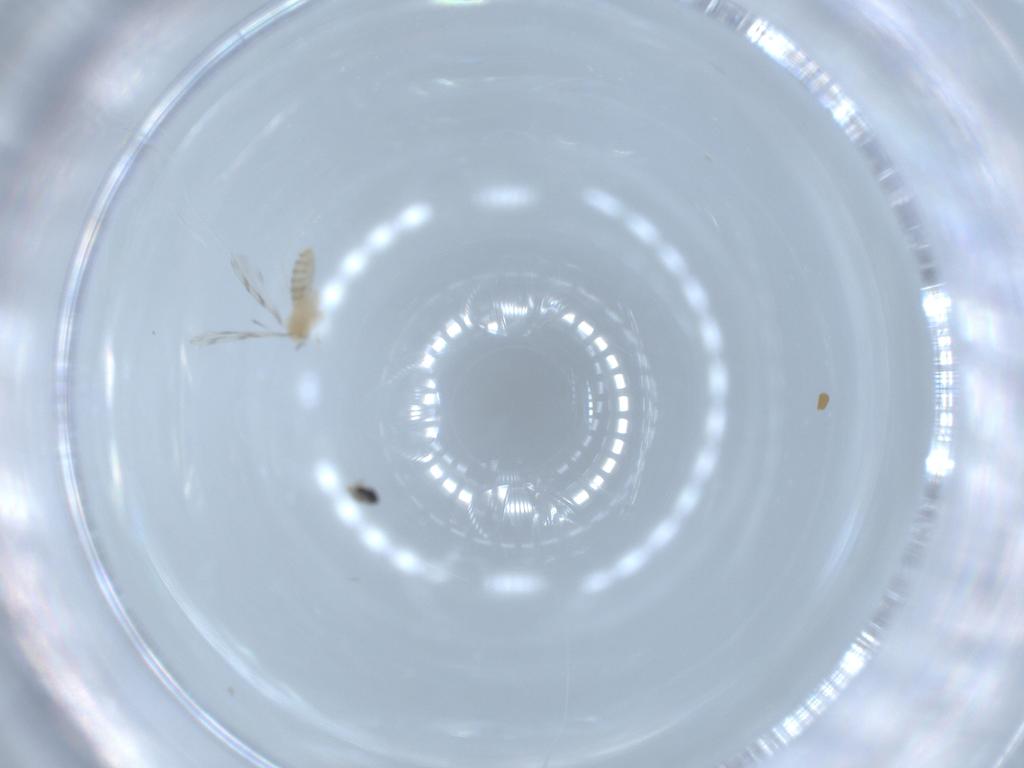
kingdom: Animalia
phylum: Arthropoda
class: Insecta
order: Diptera
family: Cecidomyiidae
